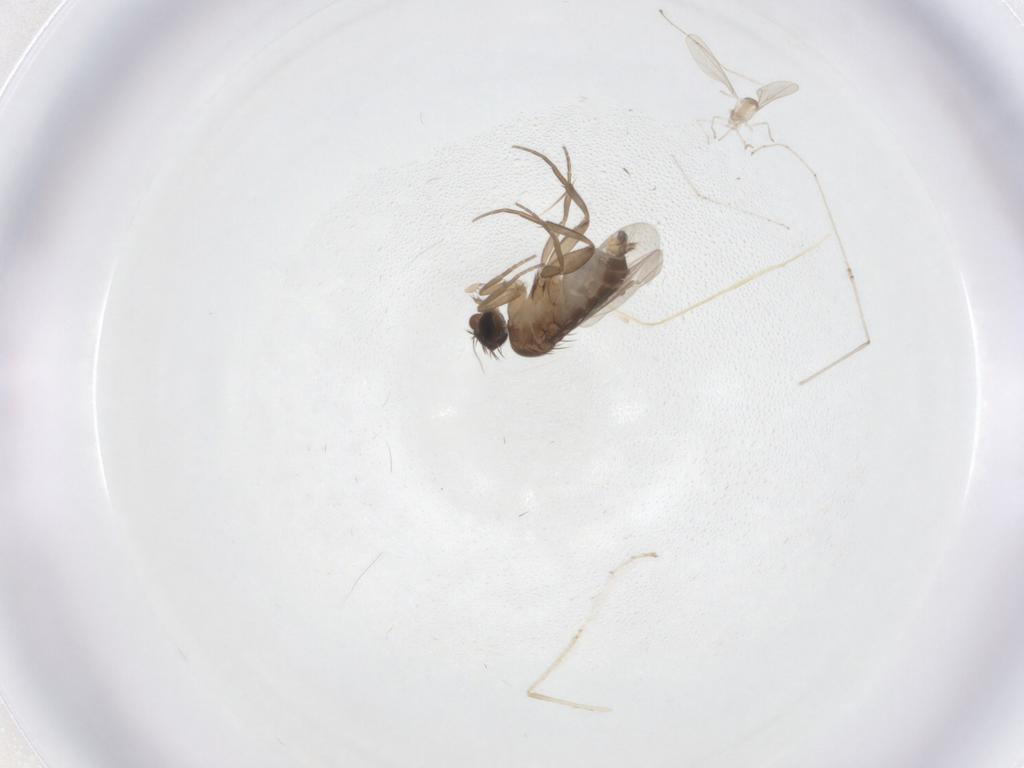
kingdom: Animalia
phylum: Arthropoda
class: Insecta
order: Diptera
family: Phoridae
